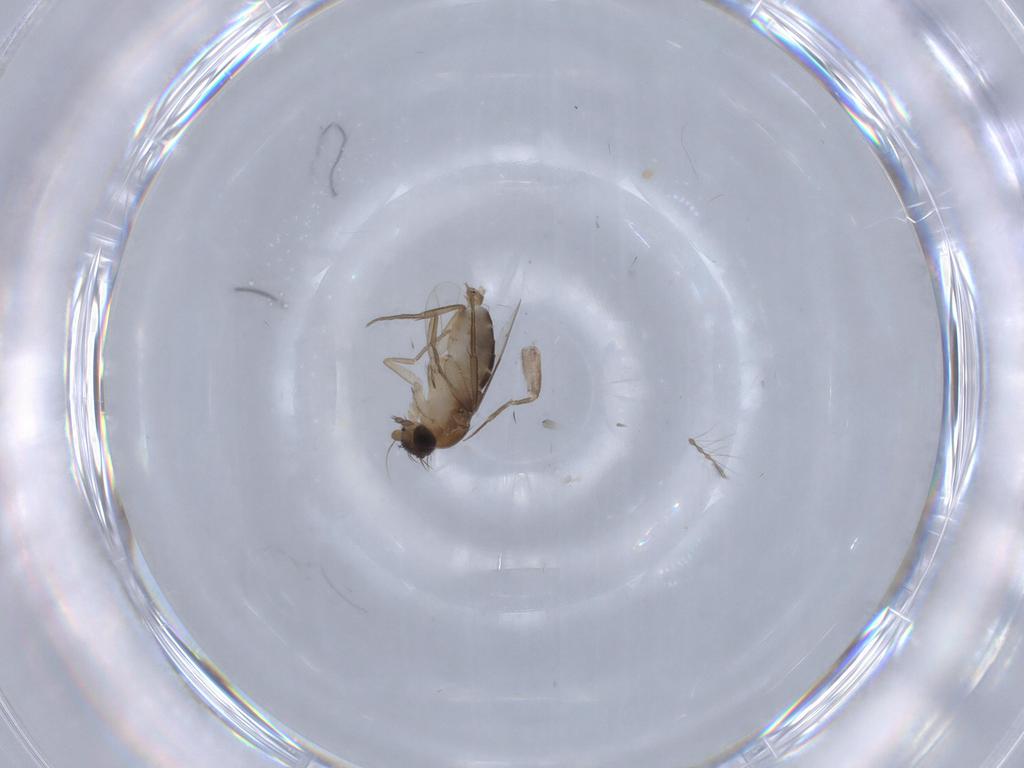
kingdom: Animalia
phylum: Arthropoda
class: Insecta
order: Diptera
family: Phoridae
